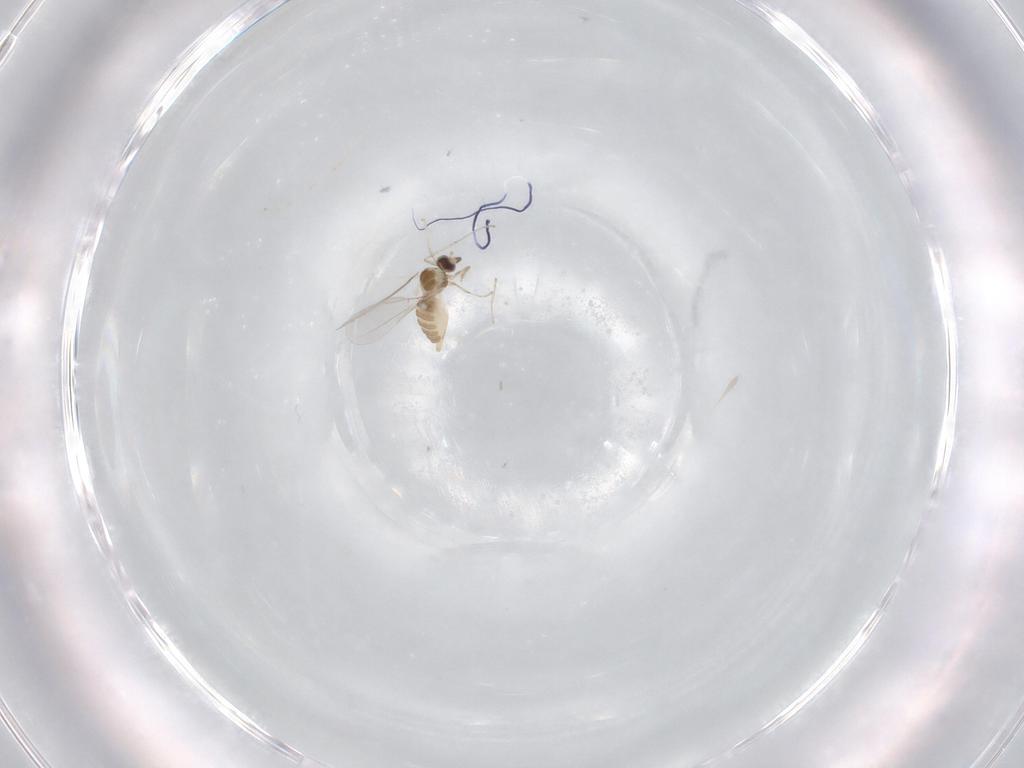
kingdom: Animalia
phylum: Arthropoda
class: Insecta
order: Diptera
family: Cecidomyiidae
